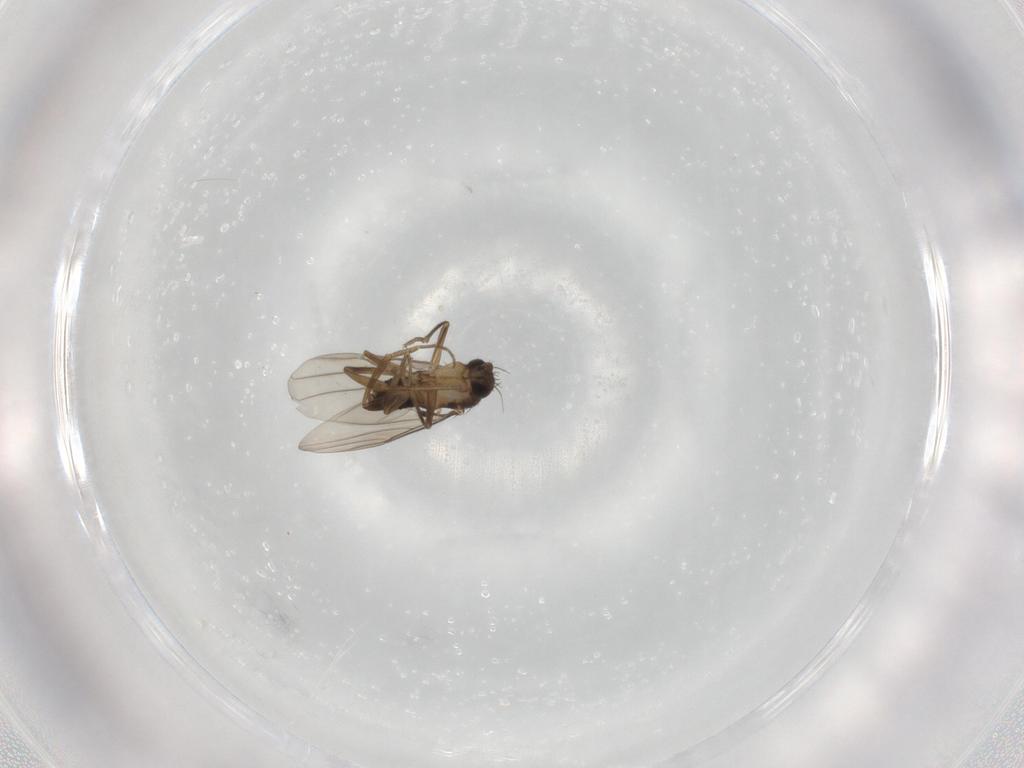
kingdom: Animalia
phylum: Arthropoda
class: Insecta
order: Diptera
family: Phoridae
